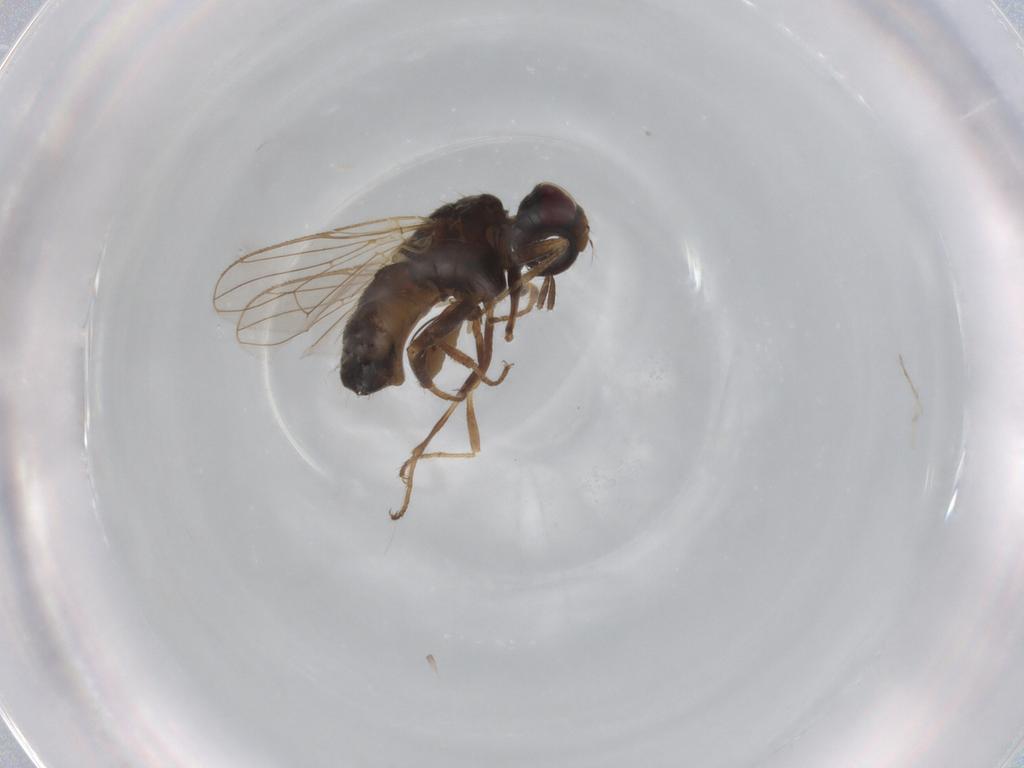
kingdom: Animalia
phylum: Arthropoda
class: Insecta
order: Diptera
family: Muscidae
